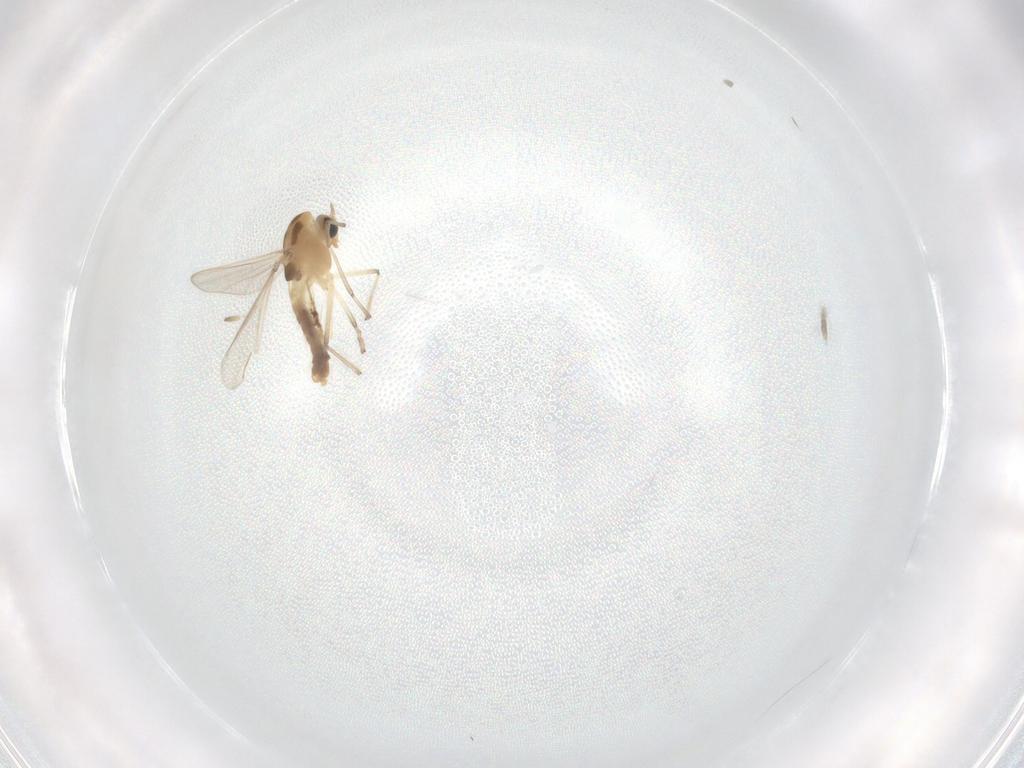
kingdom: Animalia
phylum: Arthropoda
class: Insecta
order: Diptera
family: Chironomidae
